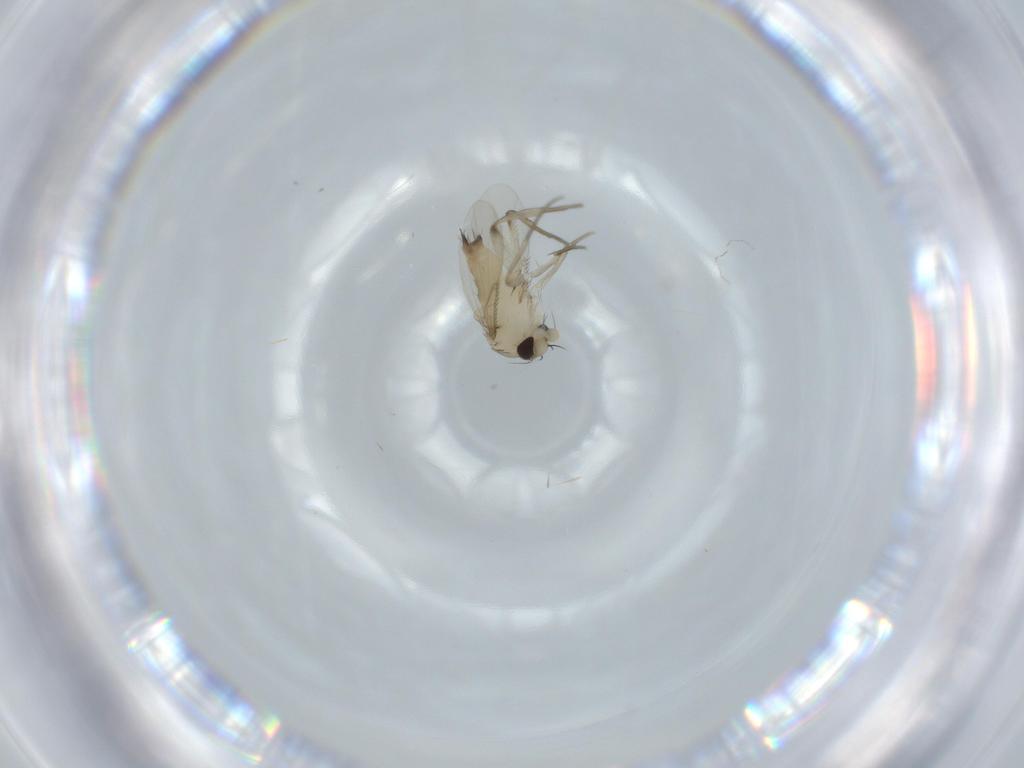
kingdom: Animalia
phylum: Arthropoda
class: Insecta
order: Diptera
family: Phoridae
